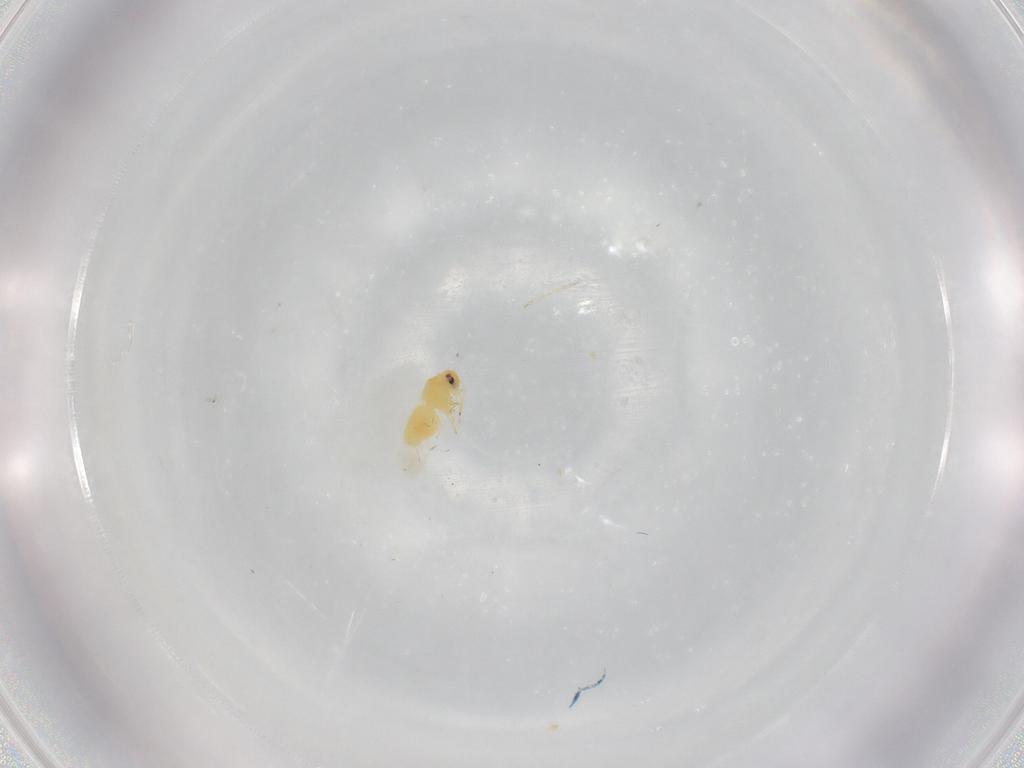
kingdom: Animalia
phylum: Arthropoda
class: Insecta
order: Hemiptera
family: Aleyrodidae
